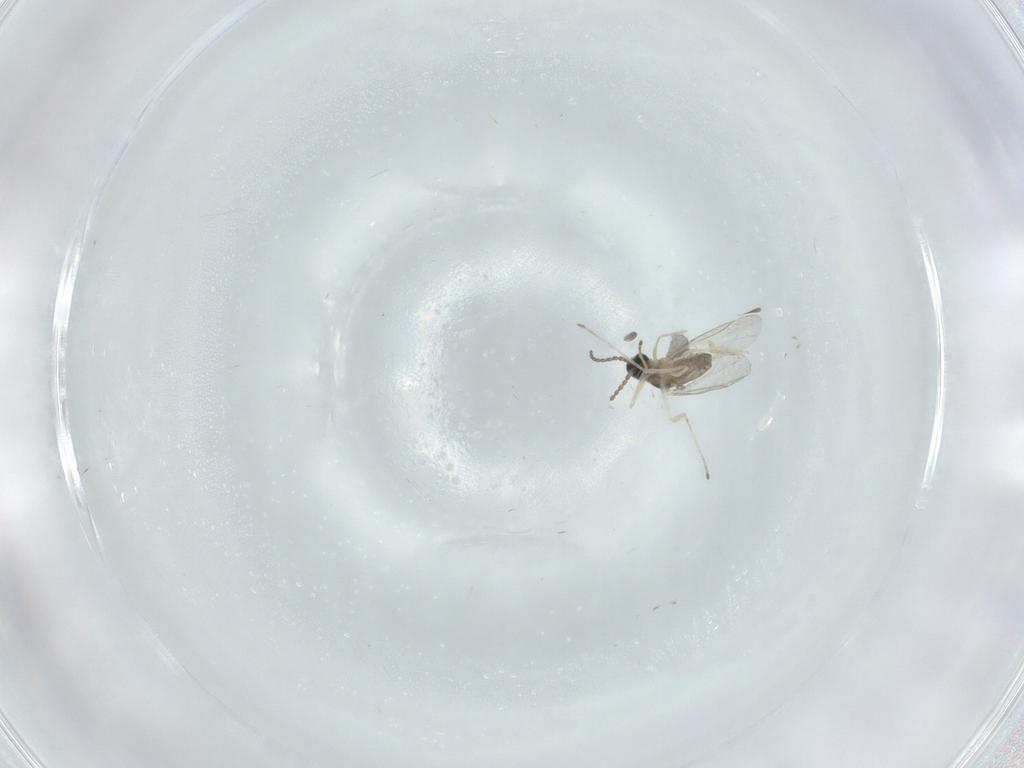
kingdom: Animalia
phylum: Arthropoda
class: Insecta
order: Diptera
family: Cecidomyiidae
